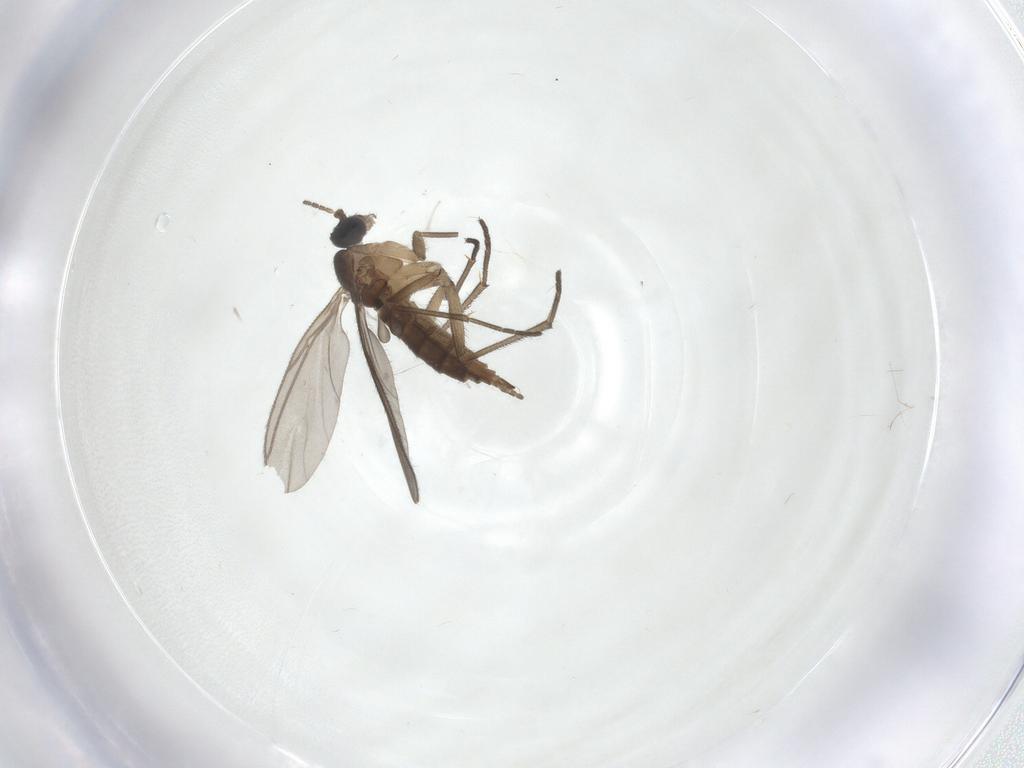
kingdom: Animalia
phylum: Arthropoda
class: Insecta
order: Diptera
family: Sciaridae
